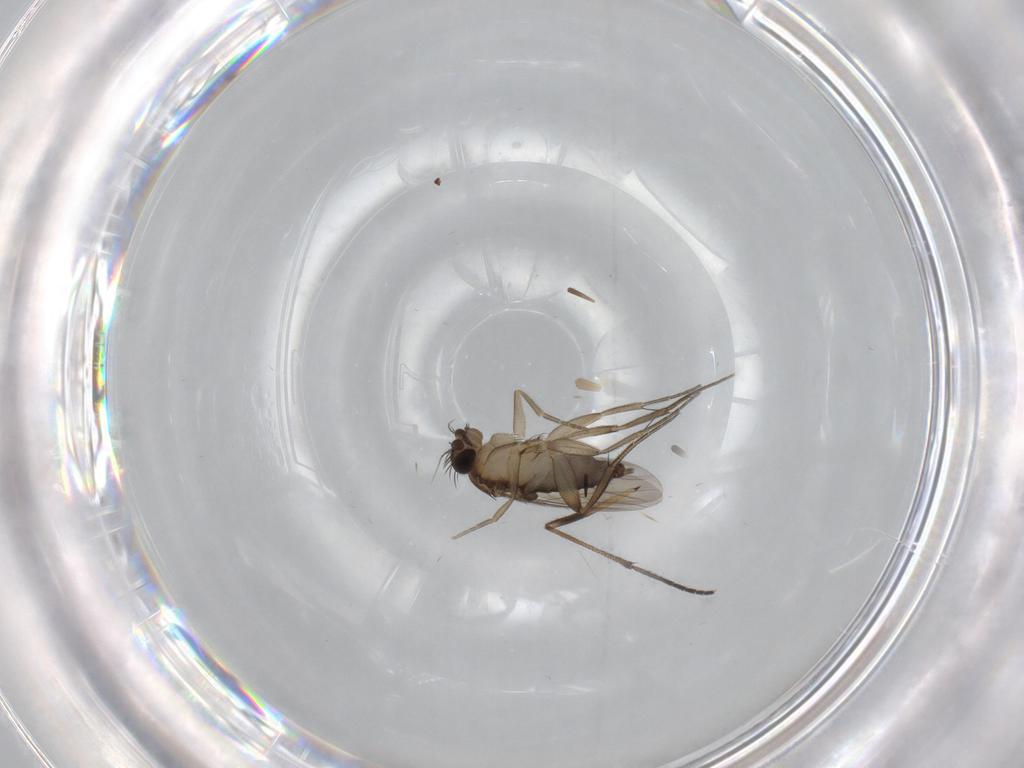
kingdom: Animalia
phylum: Arthropoda
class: Insecta
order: Diptera
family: Phoridae
